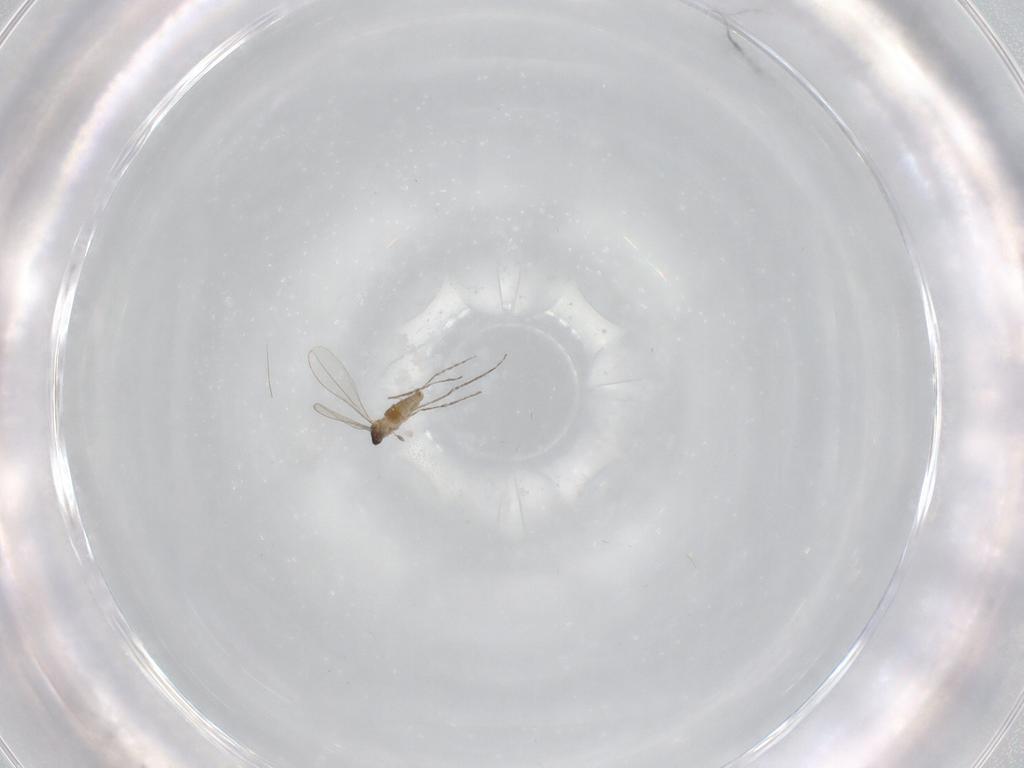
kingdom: Animalia
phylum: Arthropoda
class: Insecta
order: Diptera
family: Cecidomyiidae
